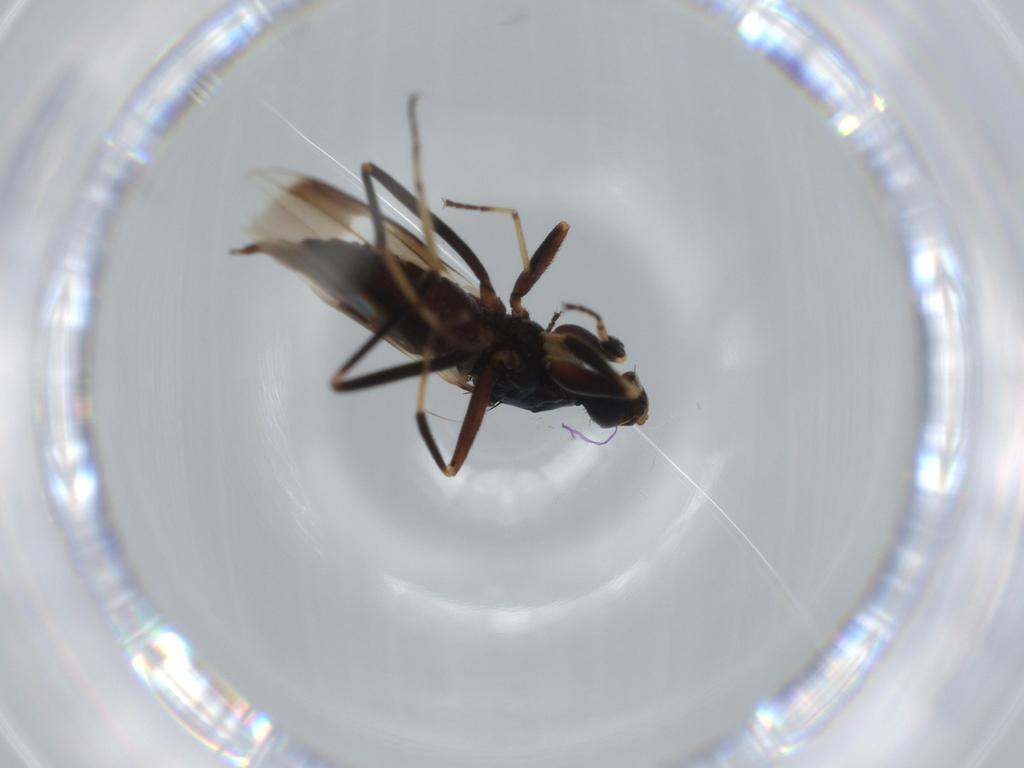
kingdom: Animalia
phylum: Arthropoda
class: Insecta
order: Diptera
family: Hybotidae
